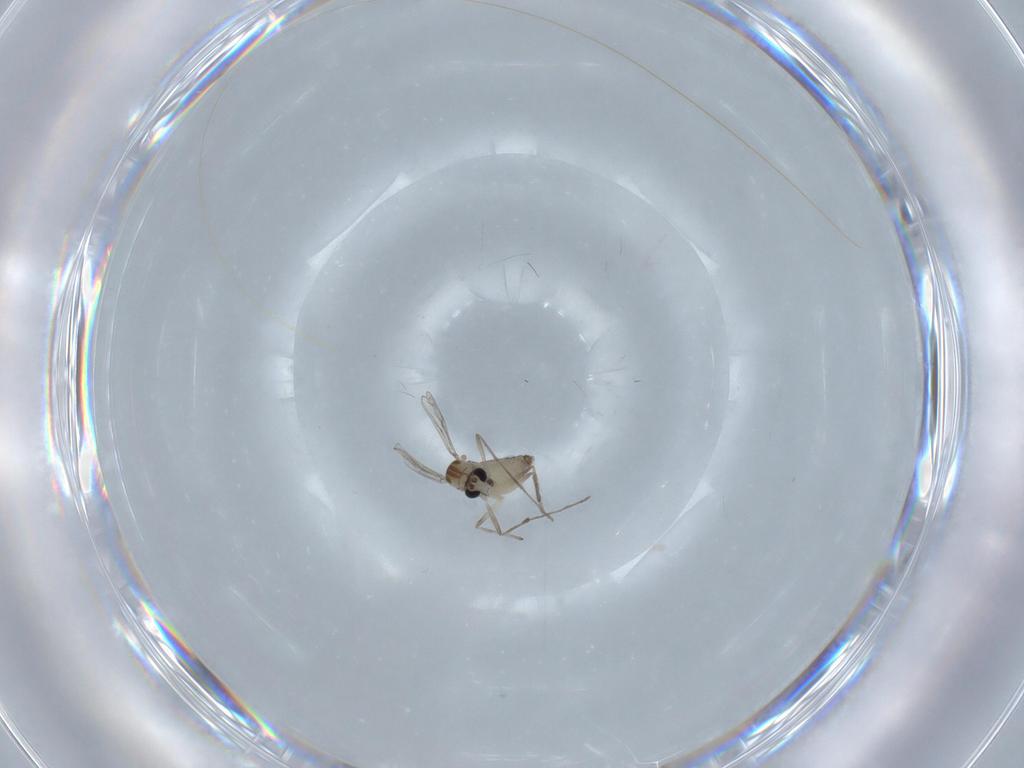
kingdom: Animalia
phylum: Arthropoda
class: Insecta
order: Diptera
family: Chironomidae
